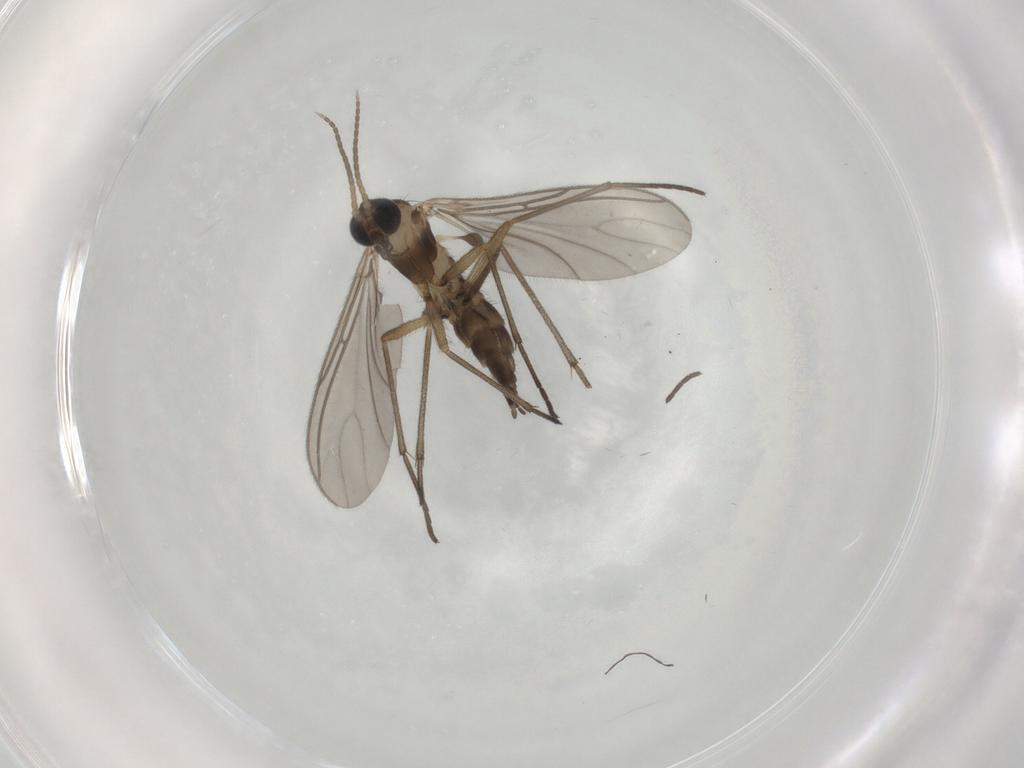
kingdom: Animalia
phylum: Arthropoda
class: Insecta
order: Diptera
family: Sciaridae
